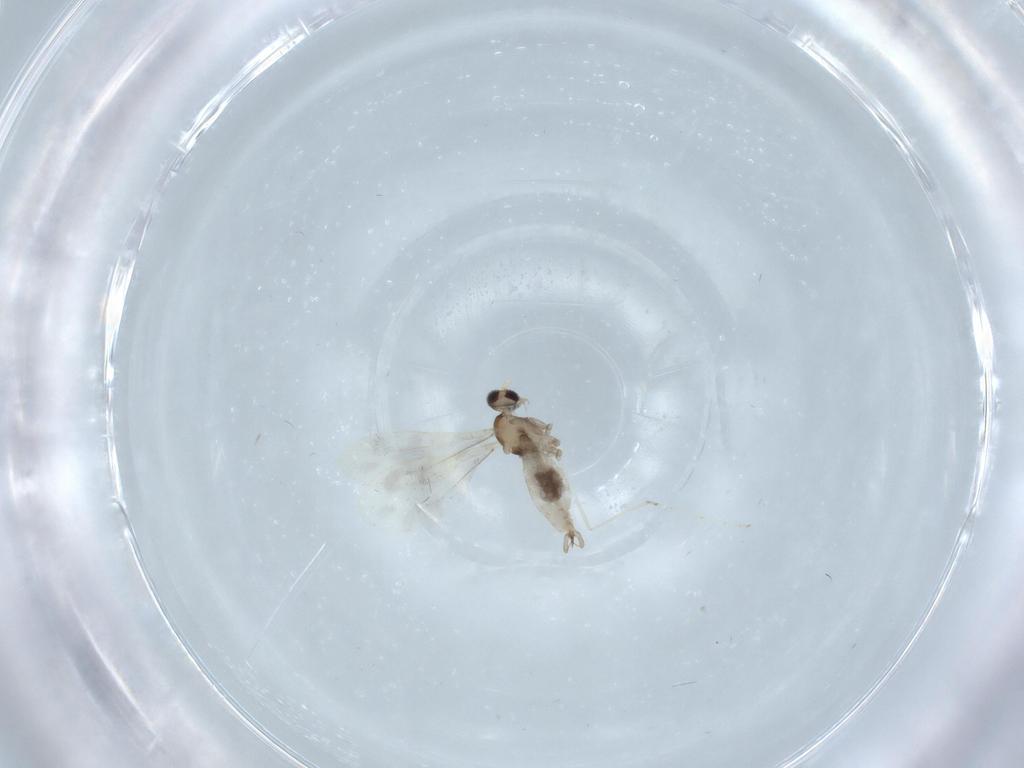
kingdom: Animalia
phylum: Arthropoda
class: Insecta
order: Diptera
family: Cecidomyiidae
